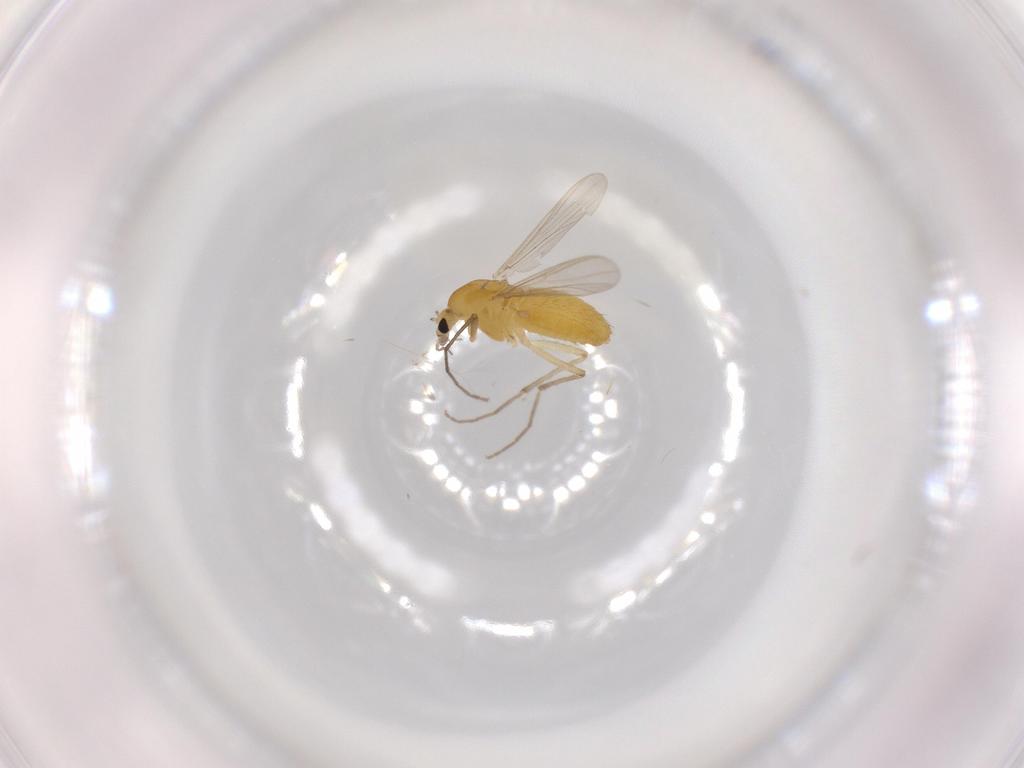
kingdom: Animalia
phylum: Arthropoda
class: Insecta
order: Diptera
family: Chironomidae
